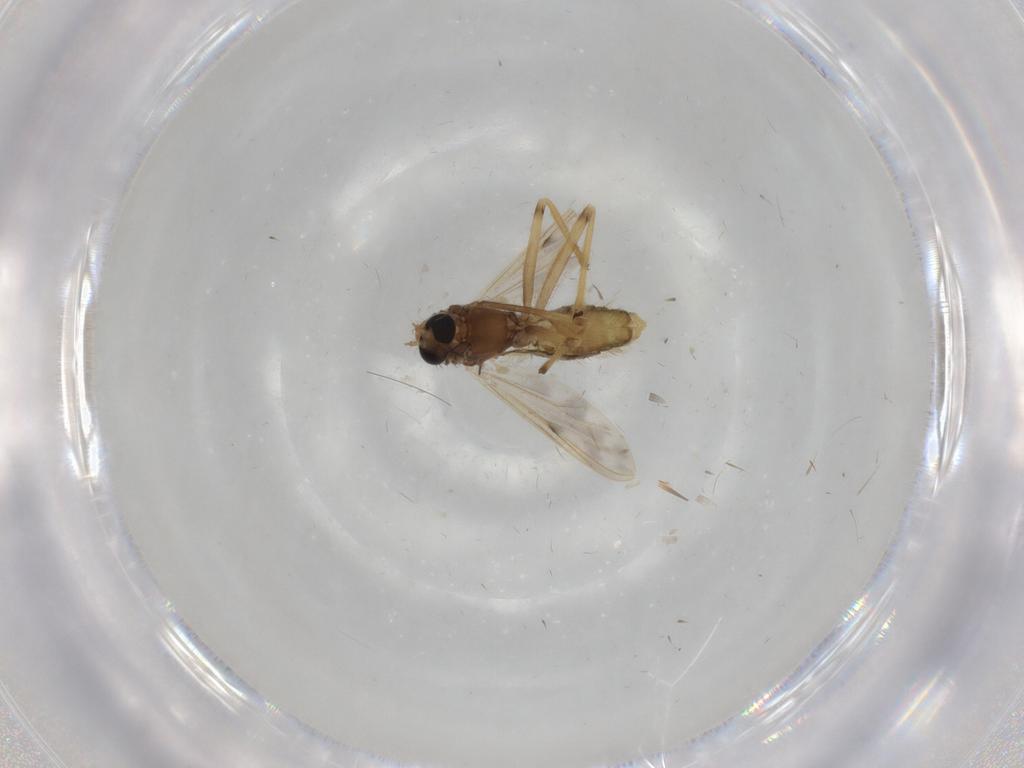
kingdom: Animalia
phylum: Arthropoda
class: Insecta
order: Diptera
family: Chironomidae
